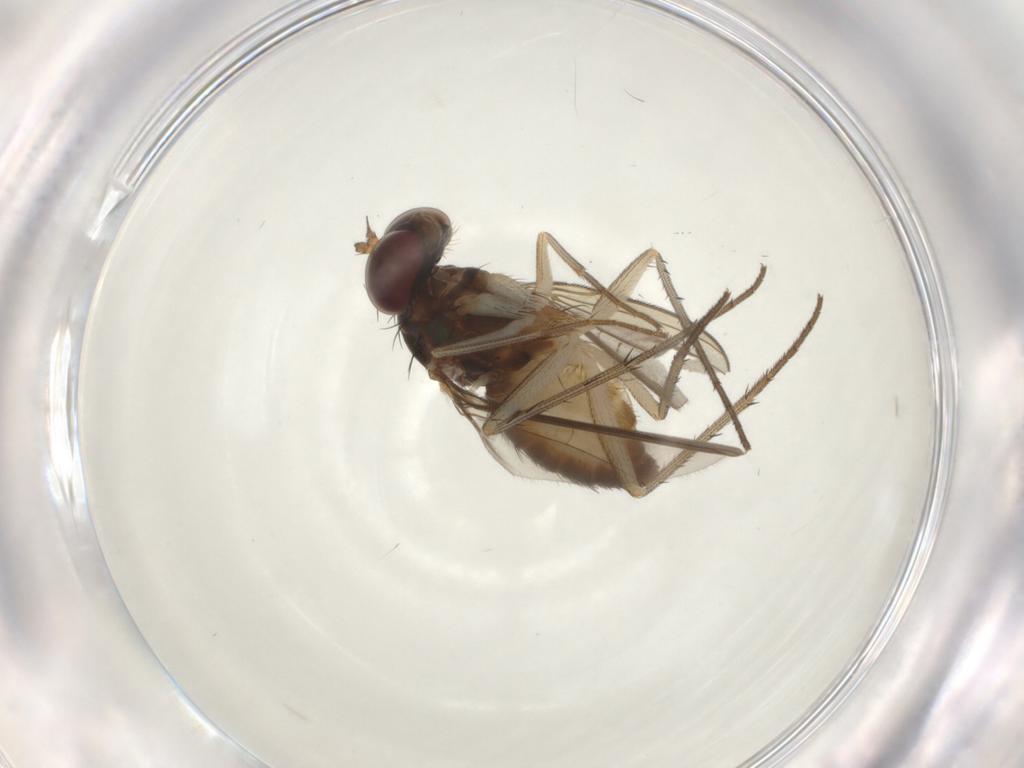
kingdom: Animalia
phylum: Arthropoda
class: Insecta
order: Diptera
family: Dolichopodidae
